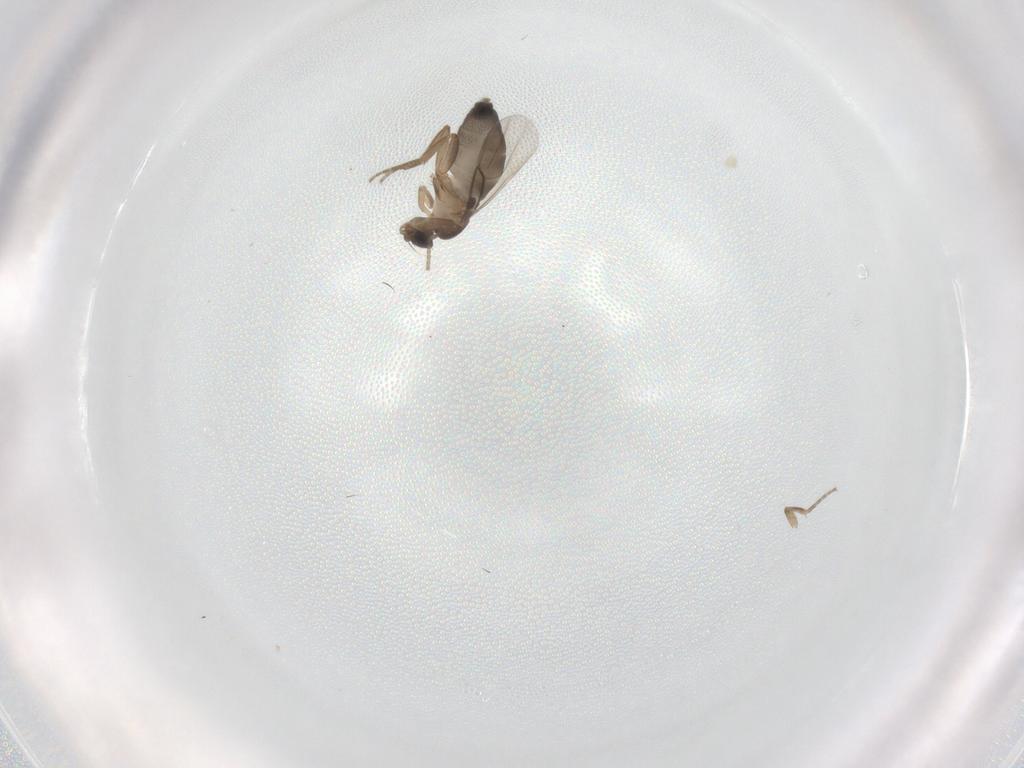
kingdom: Animalia
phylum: Arthropoda
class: Insecta
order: Diptera
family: Phoridae
